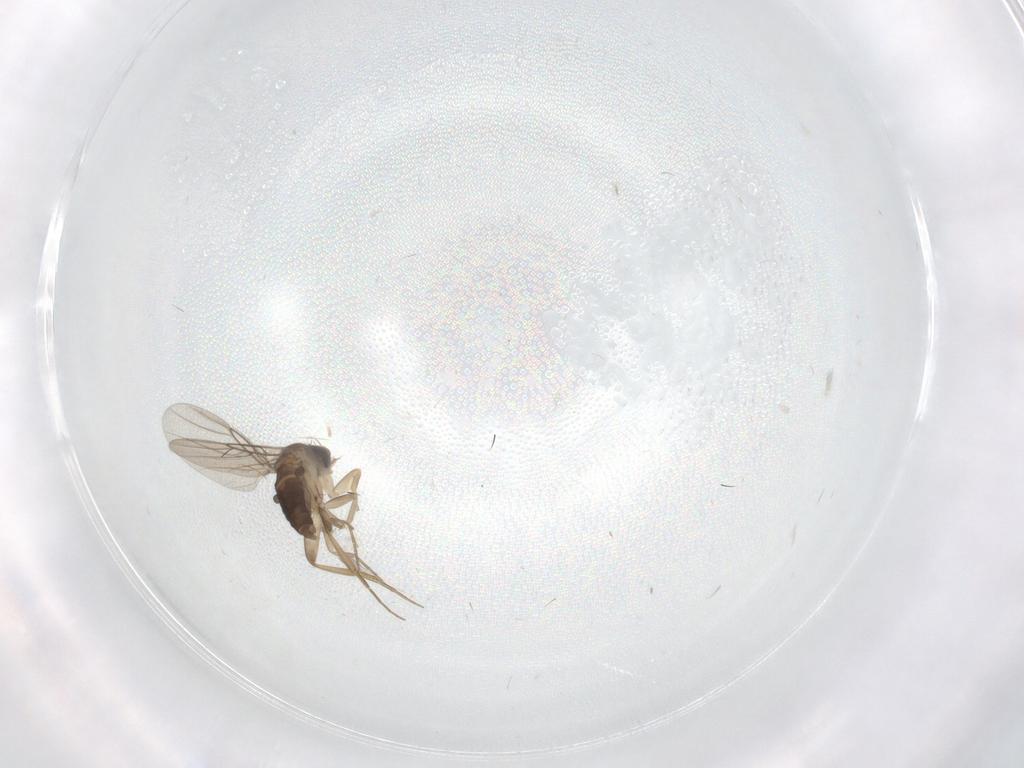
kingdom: Animalia
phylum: Arthropoda
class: Insecta
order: Diptera
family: Phoridae
